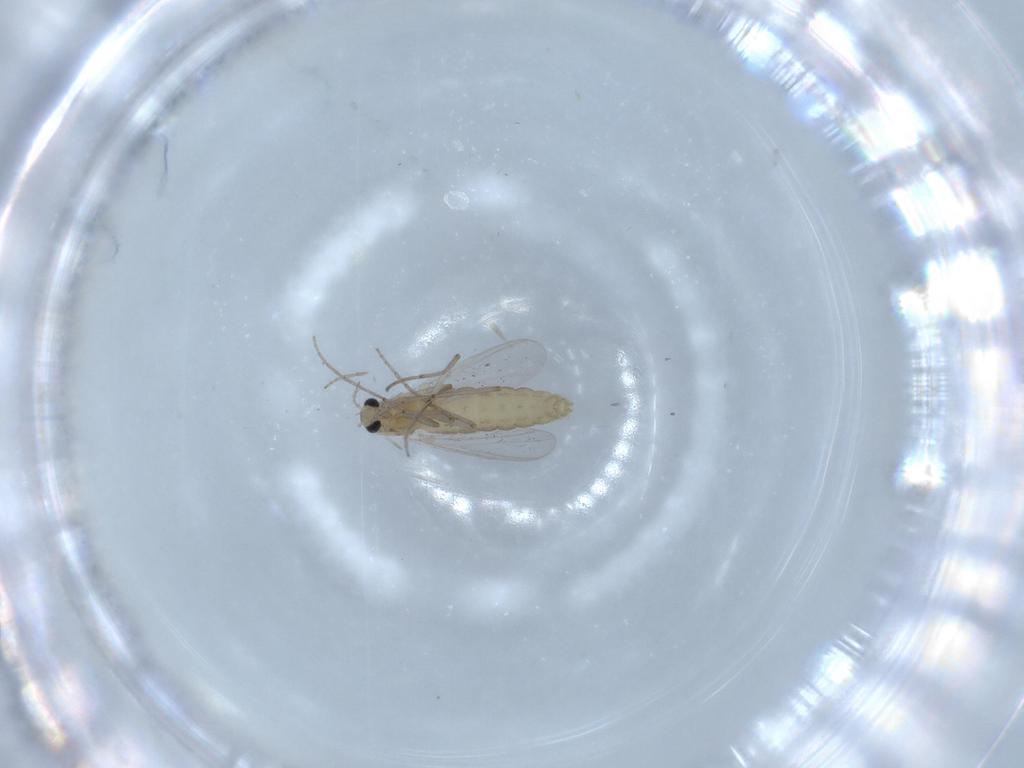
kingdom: Animalia
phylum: Arthropoda
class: Insecta
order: Diptera
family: Chironomidae
